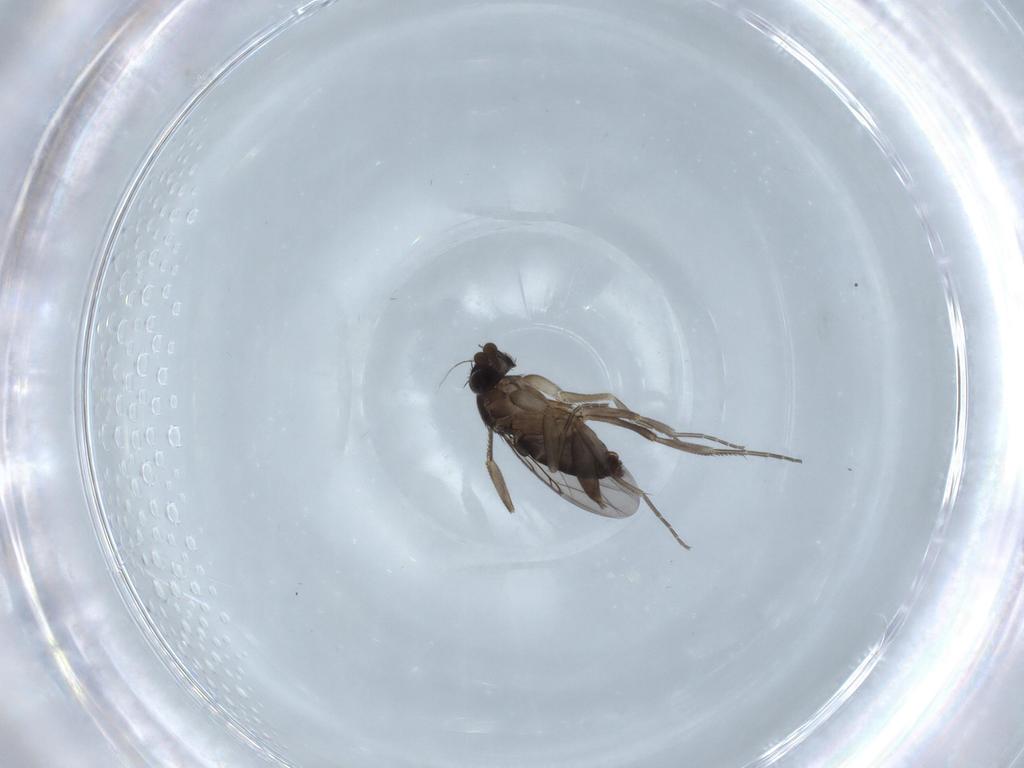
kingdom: Animalia
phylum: Arthropoda
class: Insecta
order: Diptera
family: Phoridae
